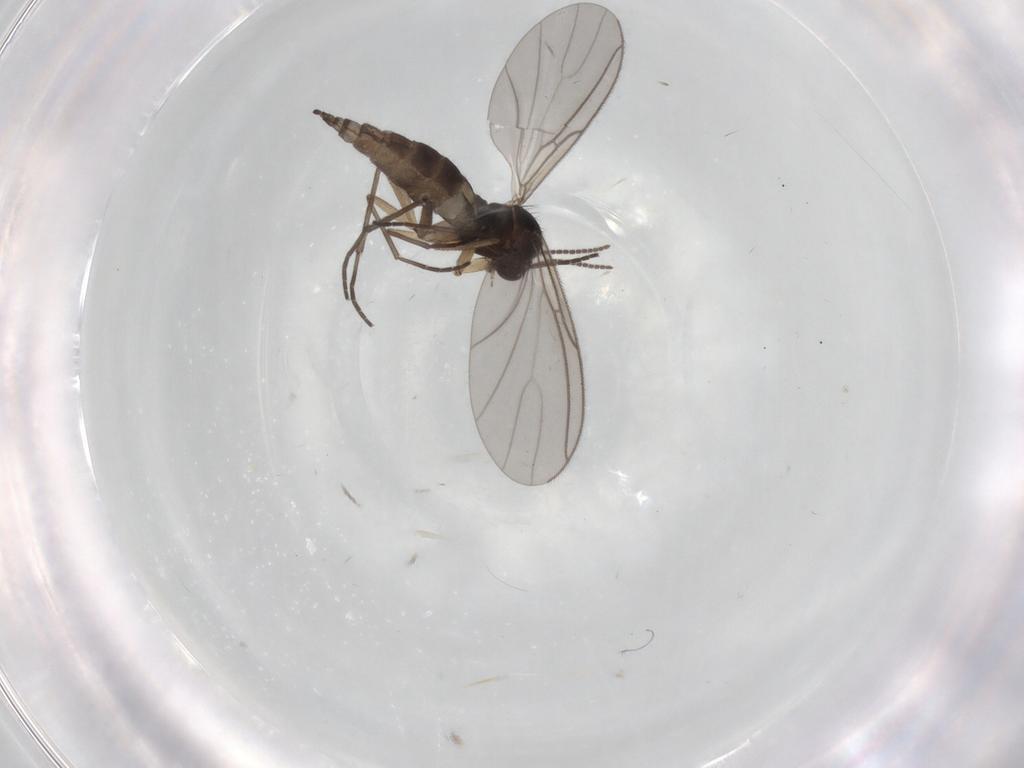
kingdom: Animalia
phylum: Arthropoda
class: Insecta
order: Diptera
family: Sciaridae
